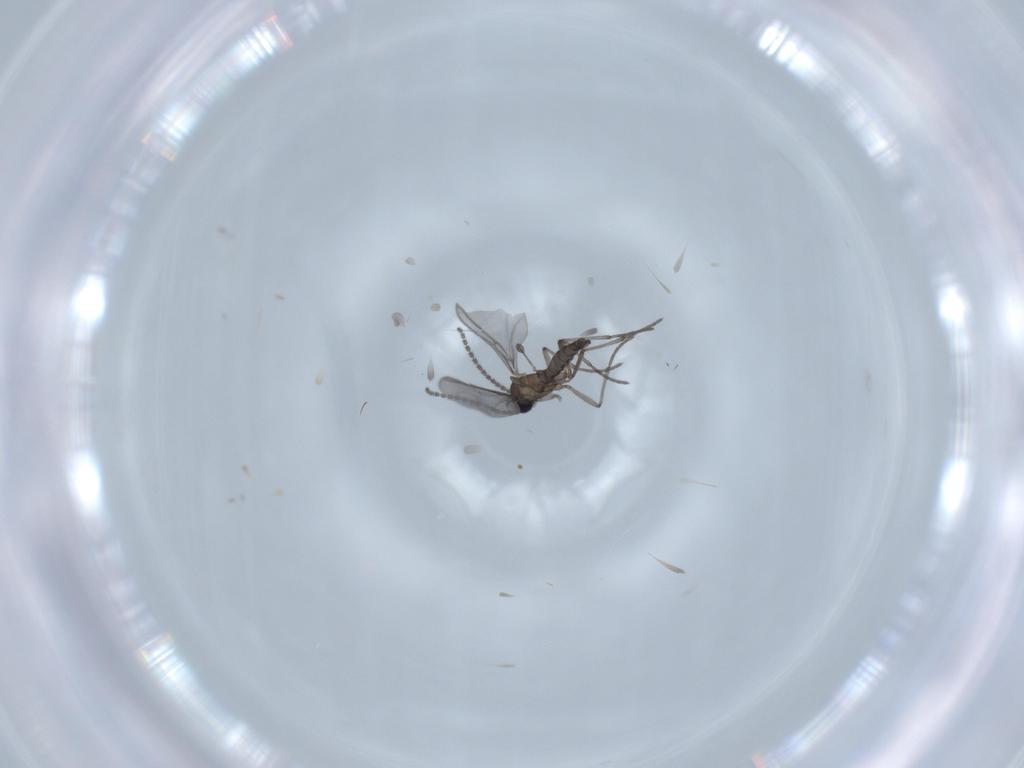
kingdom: Animalia
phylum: Arthropoda
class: Insecta
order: Diptera
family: Sciaridae
